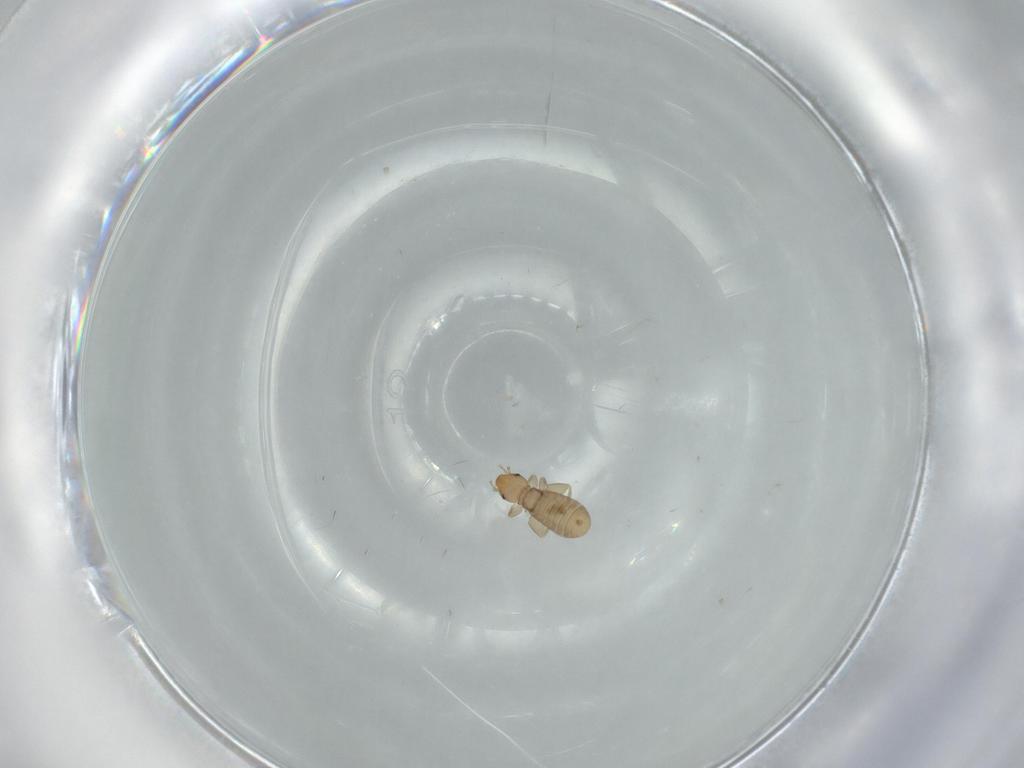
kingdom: Animalia
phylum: Arthropoda
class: Insecta
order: Psocodea
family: Liposcelididae
